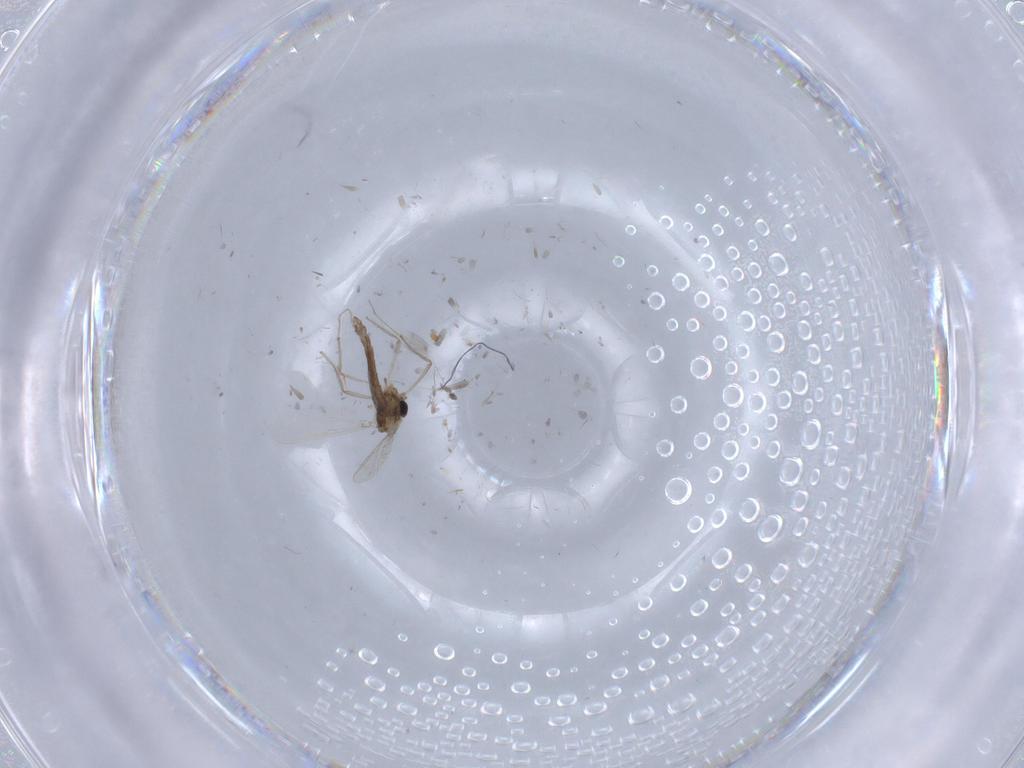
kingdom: Animalia
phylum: Arthropoda
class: Insecta
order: Diptera
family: Chironomidae
